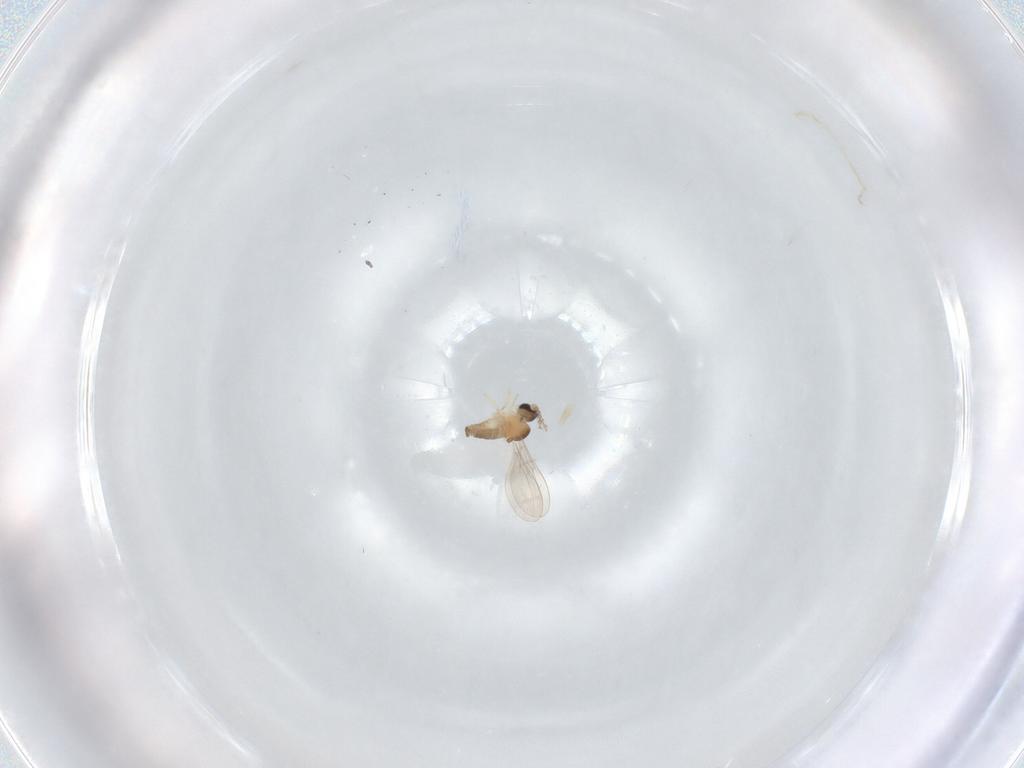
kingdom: Animalia
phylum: Arthropoda
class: Insecta
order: Diptera
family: Cecidomyiidae
